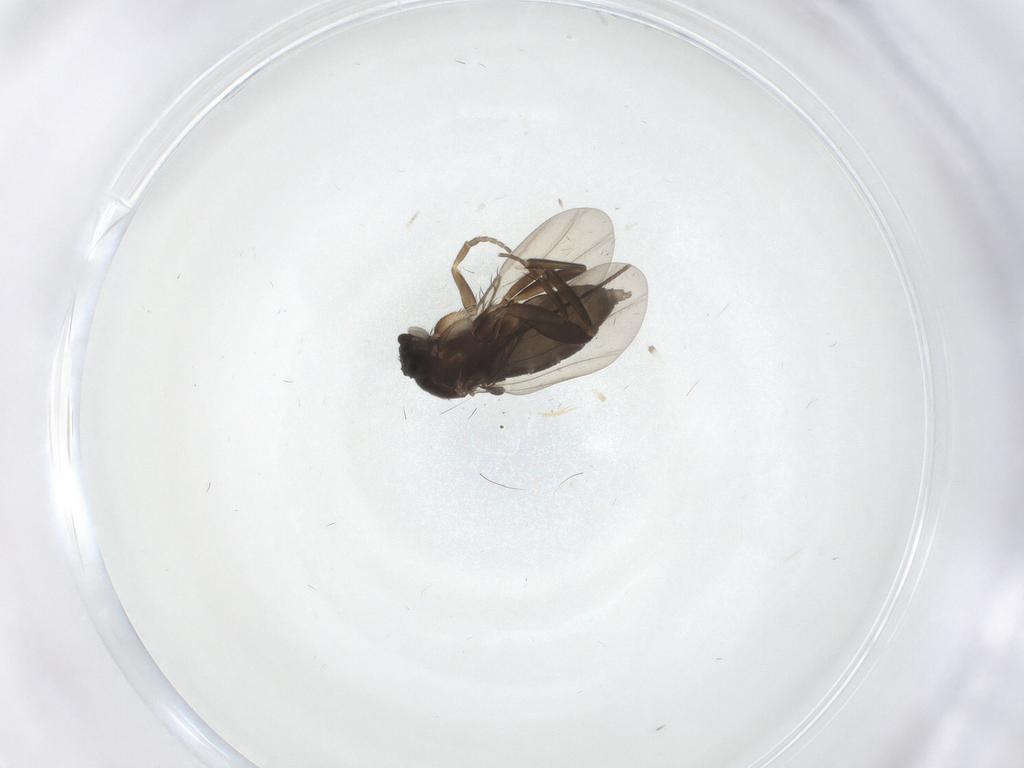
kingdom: Animalia
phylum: Arthropoda
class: Insecta
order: Diptera
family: Phoridae
